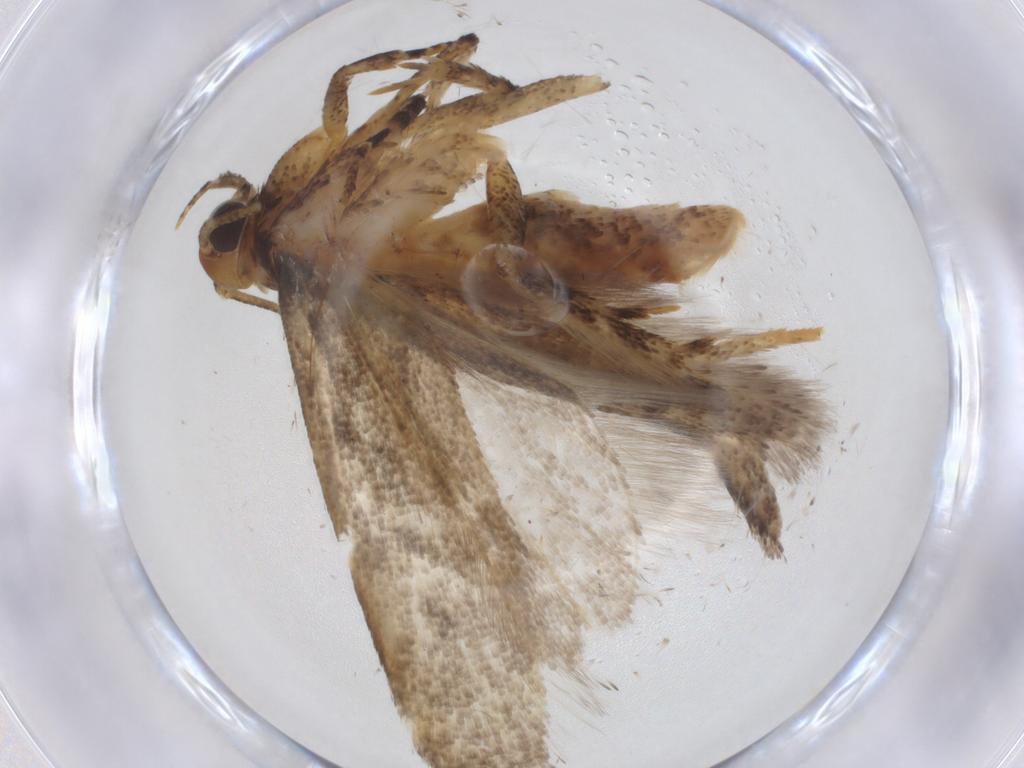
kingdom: Animalia
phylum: Arthropoda
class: Insecta
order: Lepidoptera
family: Gelechiidae
